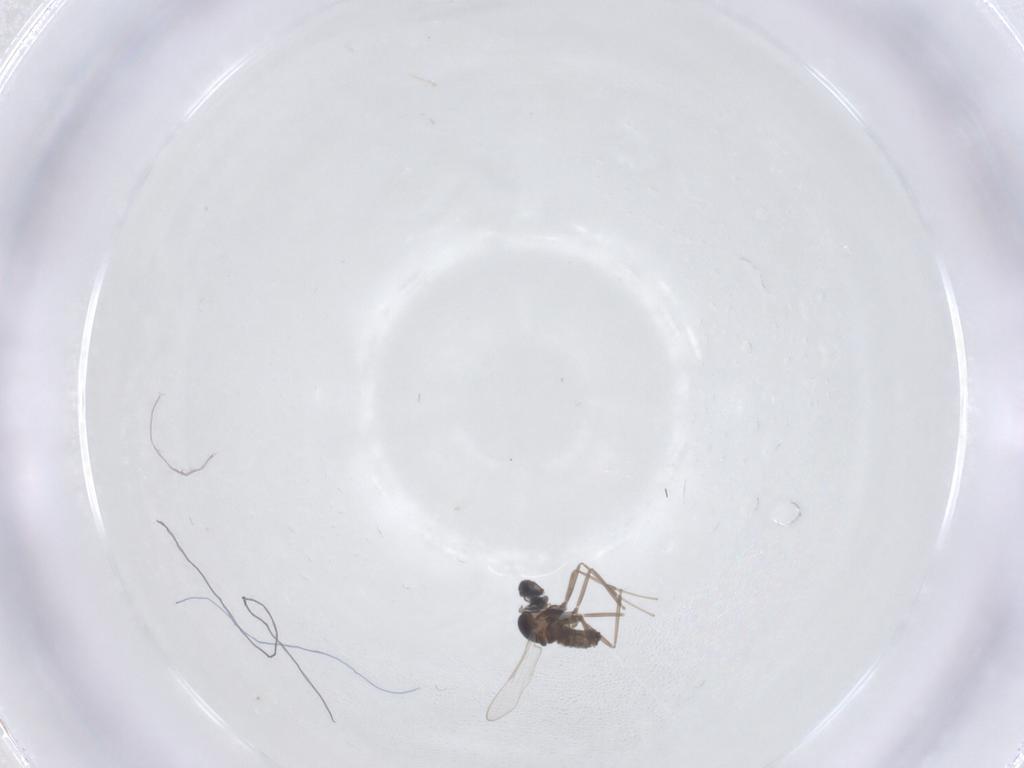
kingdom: Animalia
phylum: Arthropoda
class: Insecta
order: Diptera
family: Cecidomyiidae
